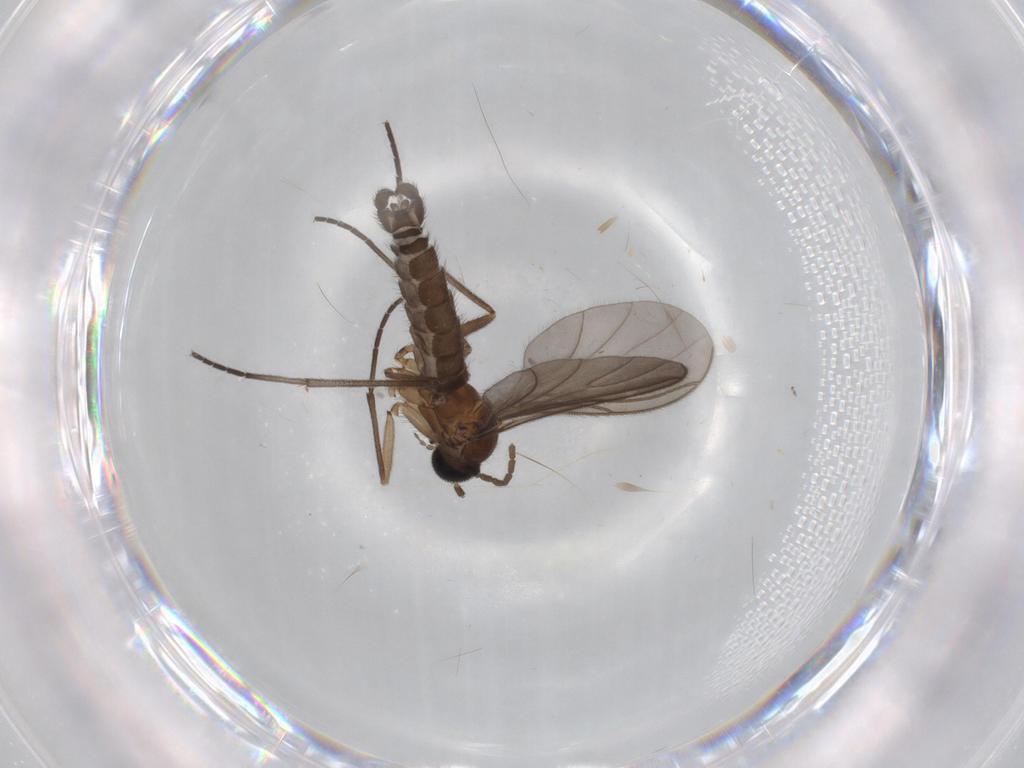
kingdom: Animalia
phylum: Arthropoda
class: Insecta
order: Diptera
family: Sciaridae
